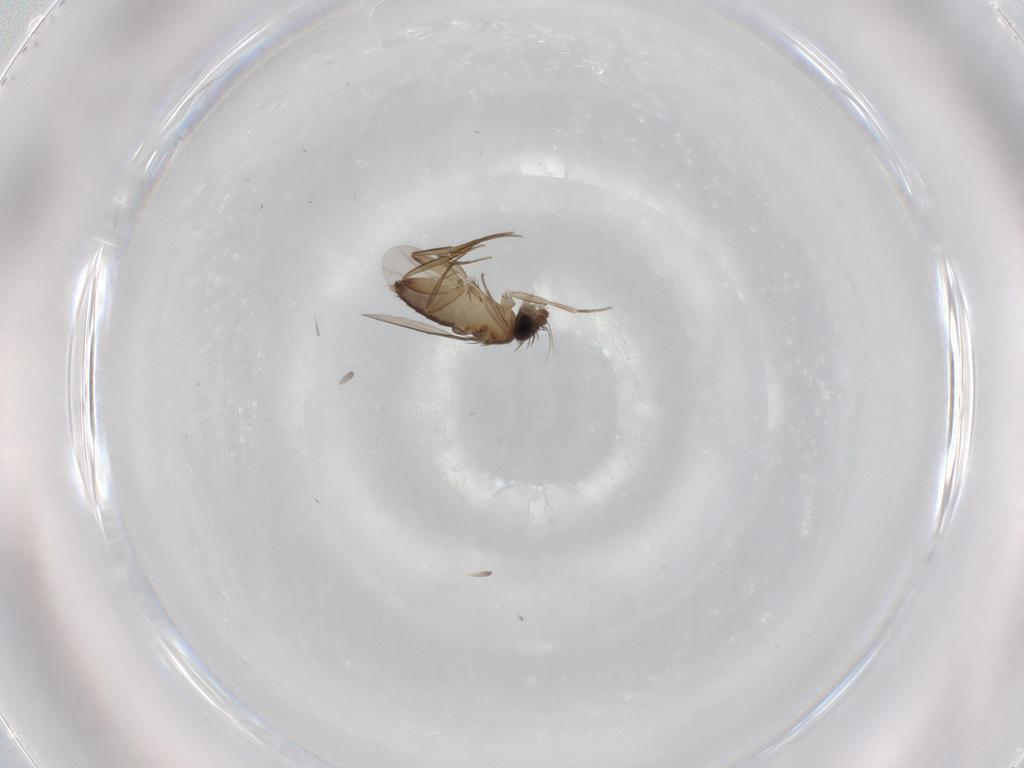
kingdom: Animalia
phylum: Arthropoda
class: Insecta
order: Diptera
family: Phoridae
